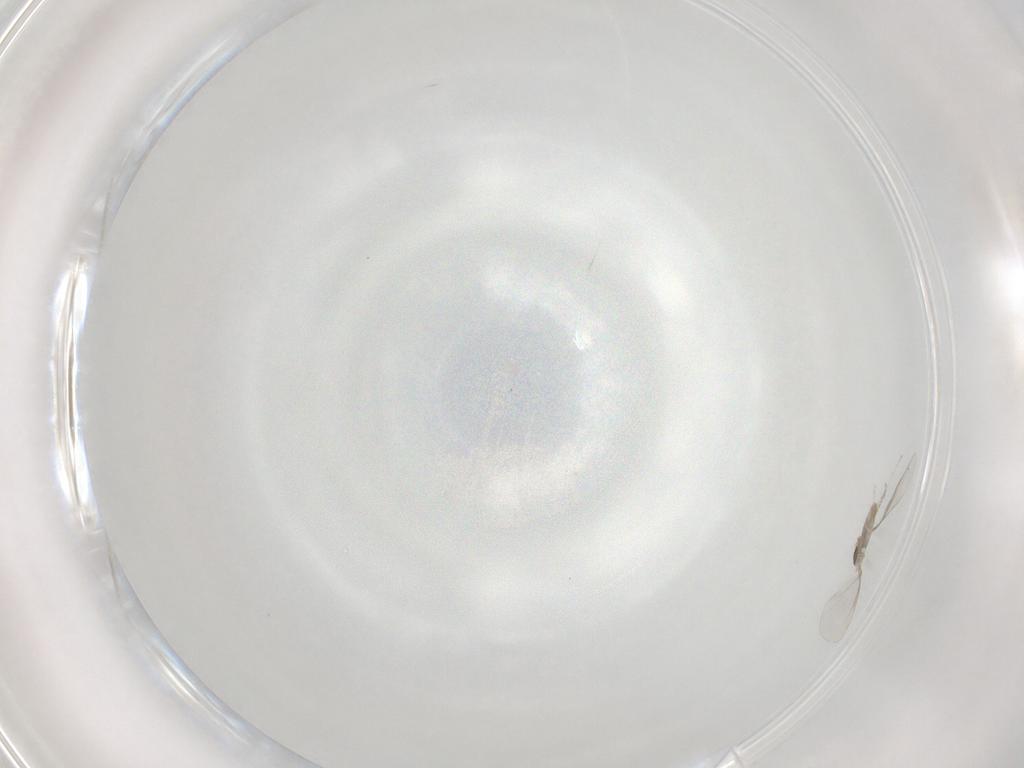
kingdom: Animalia
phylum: Arthropoda
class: Insecta
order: Diptera
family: Cecidomyiidae
